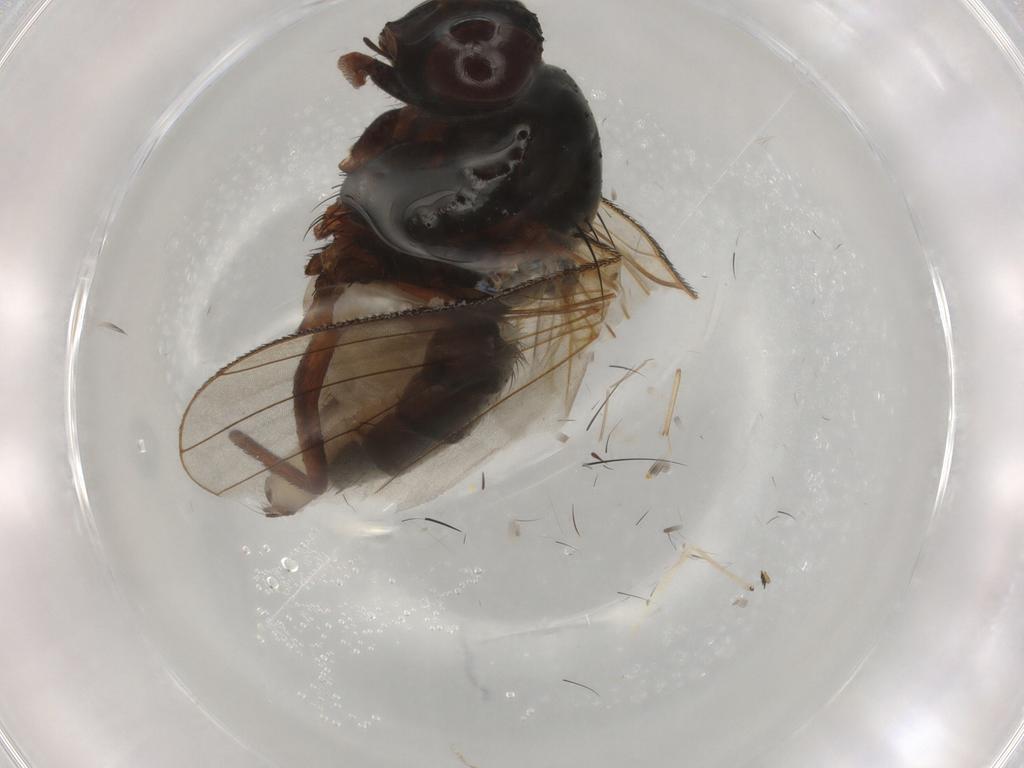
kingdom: Animalia
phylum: Arthropoda
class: Insecta
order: Diptera
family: Anthomyiidae
